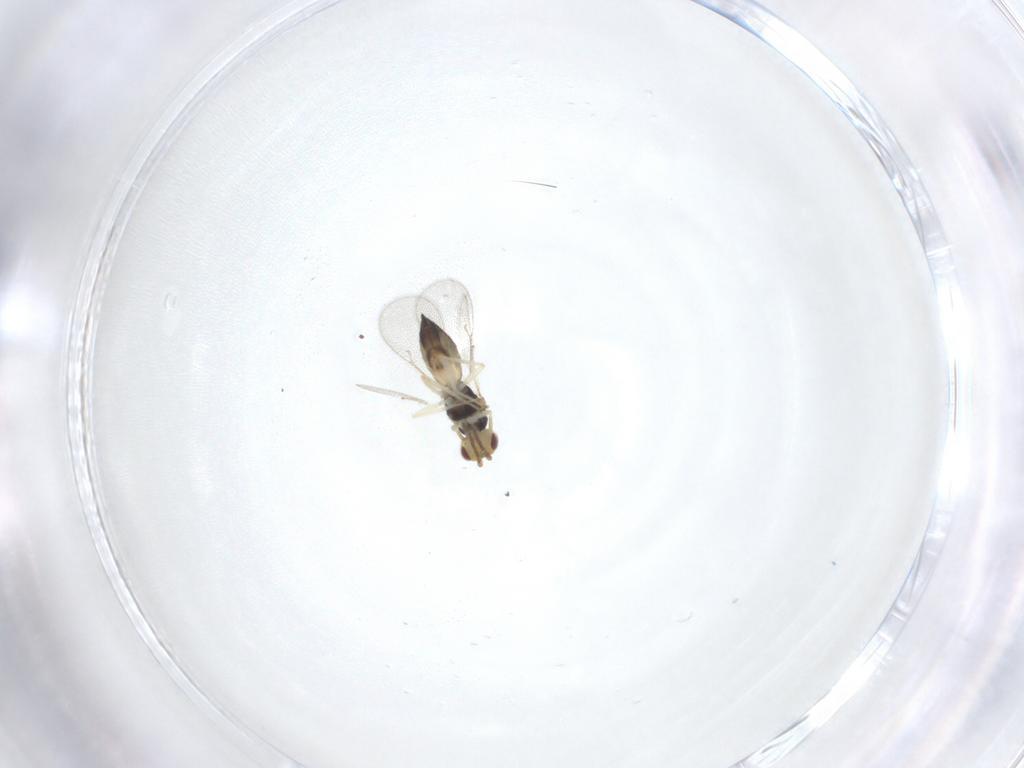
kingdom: Animalia
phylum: Arthropoda
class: Insecta
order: Hymenoptera
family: Eulophidae
